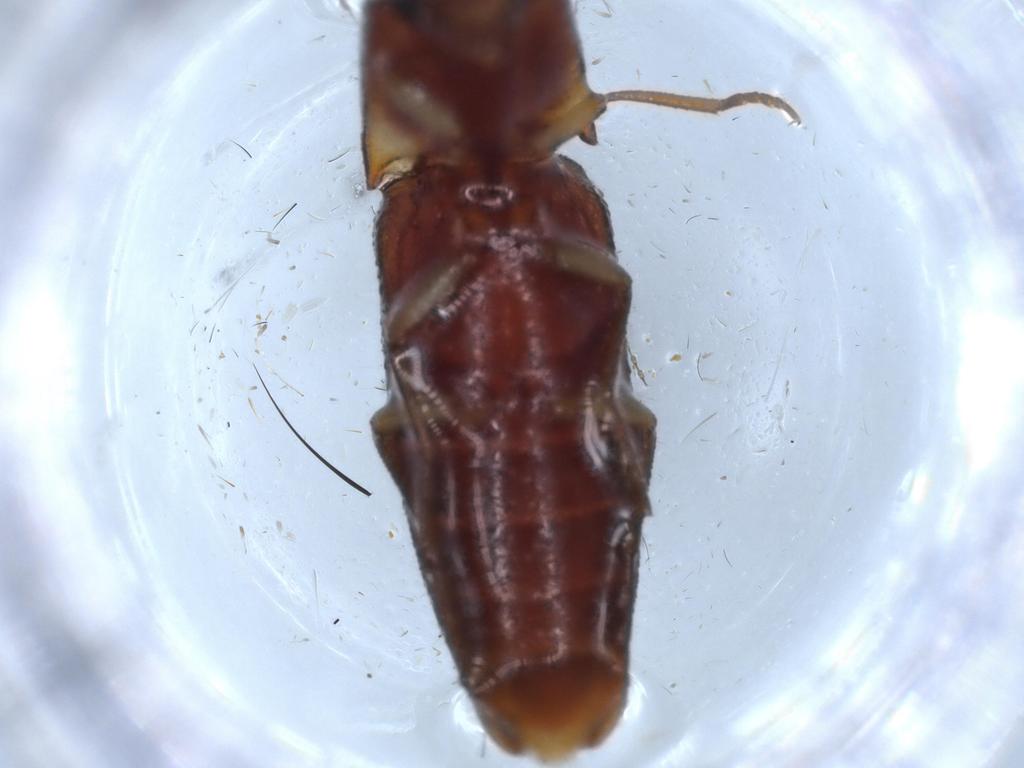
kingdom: Animalia
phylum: Arthropoda
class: Insecta
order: Coleoptera
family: Elateridae
